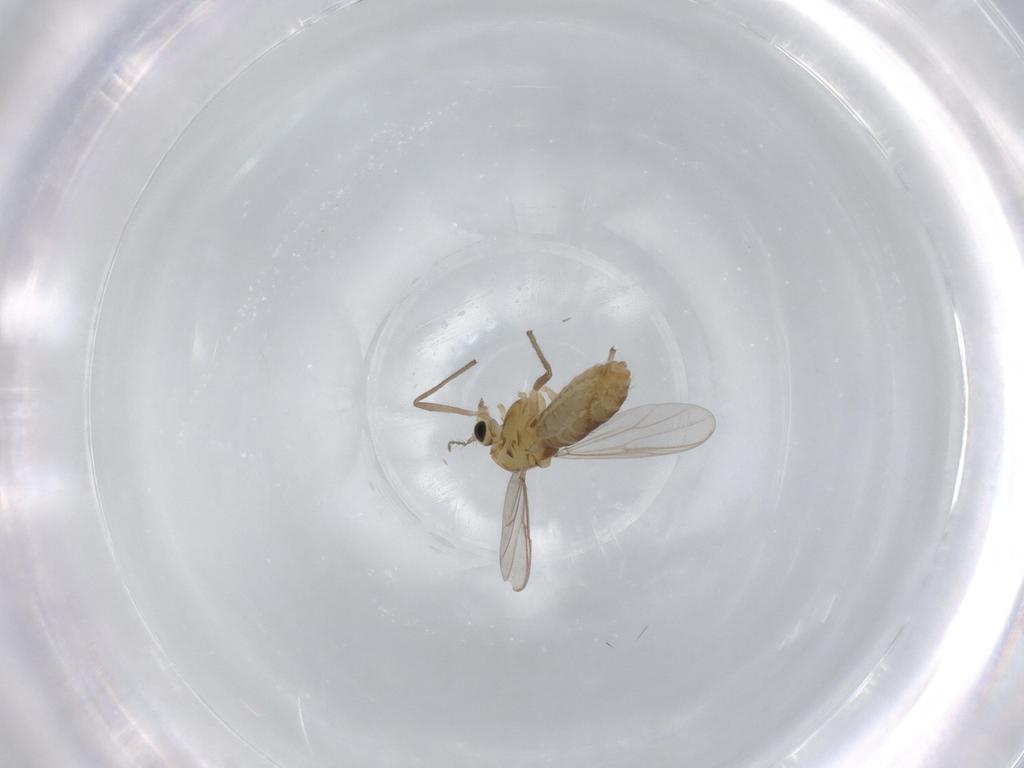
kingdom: Animalia
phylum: Arthropoda
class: Insecta
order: Diptera
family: Chironomidae
